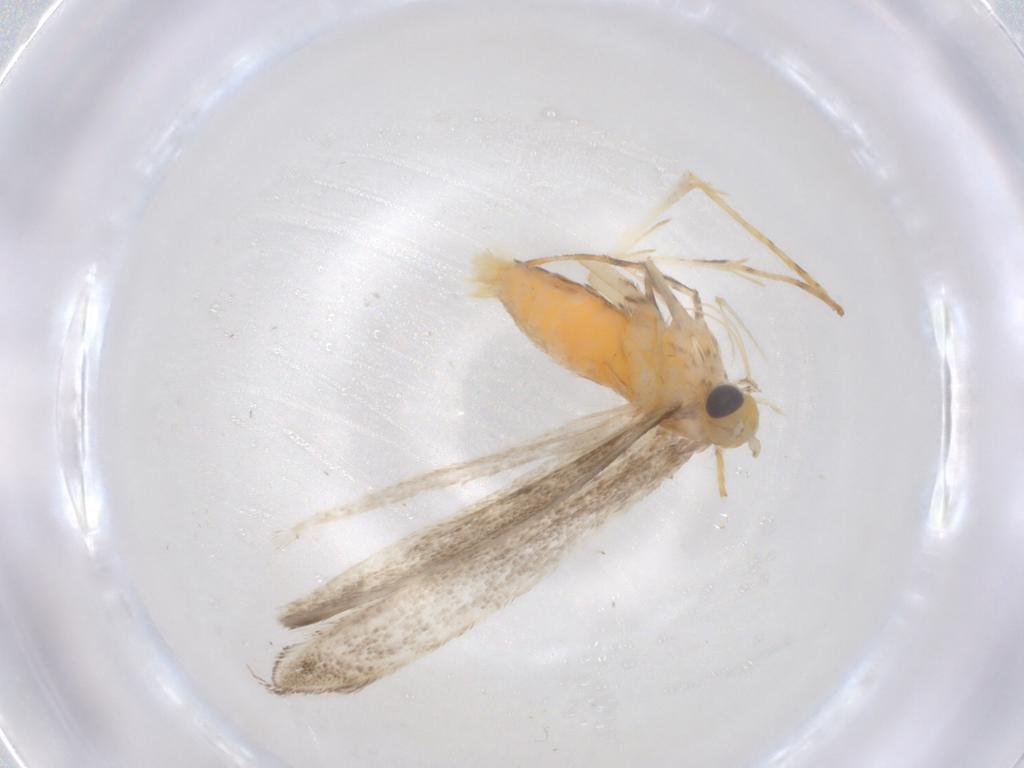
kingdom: Animalia
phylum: Arthropoda
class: Insecta
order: Lepidoptera
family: Gracillariidae
